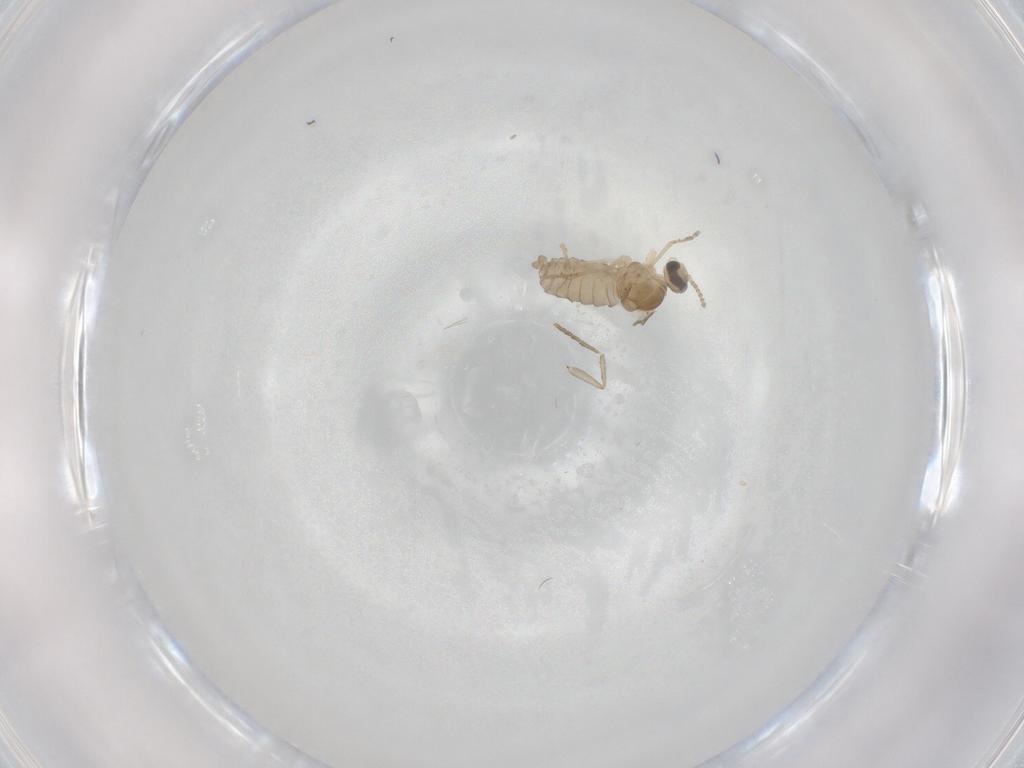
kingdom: Animalia
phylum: Arthropoda
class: Insecta
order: Diptera
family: Cecidomyiidae
